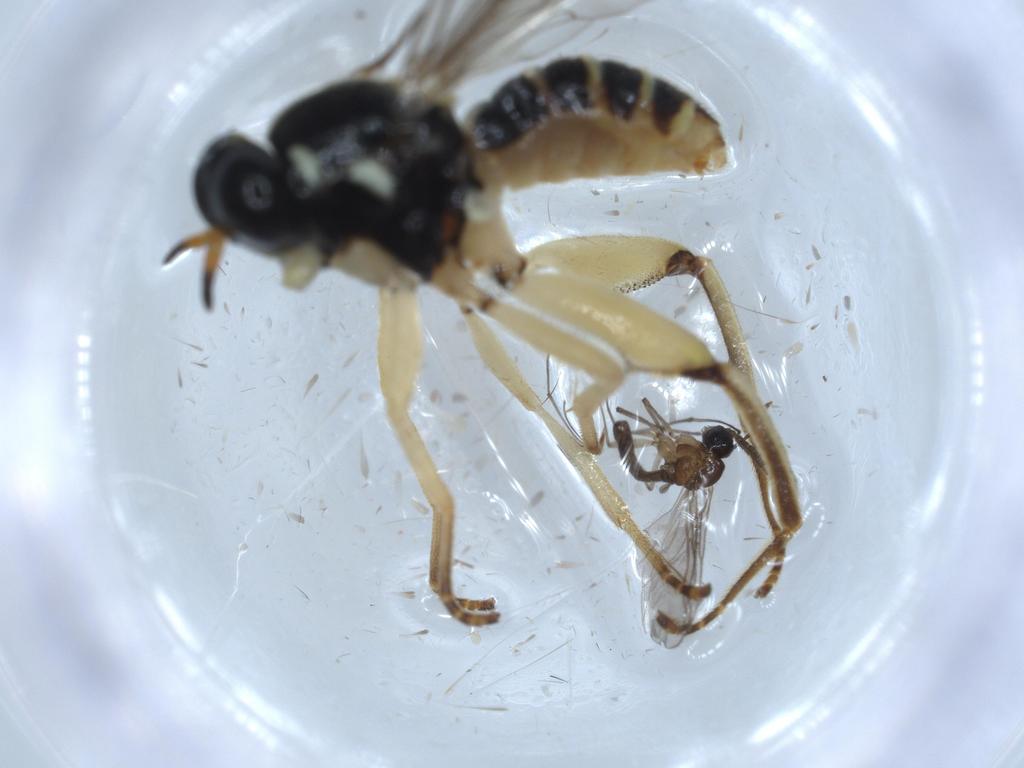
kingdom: Animalia
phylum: Arthropoda
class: Insecta
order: Diptera
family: Chironomidae
